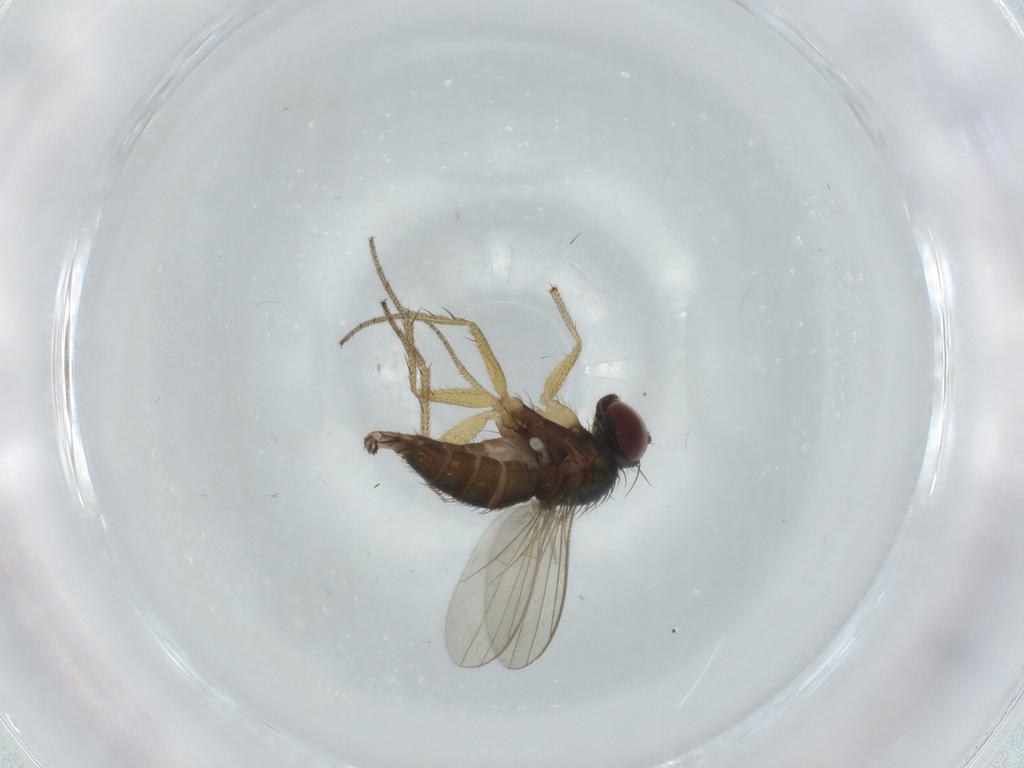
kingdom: Animalia
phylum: Arthropoda
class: Insecta
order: Diptera
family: Dolichopodidae
